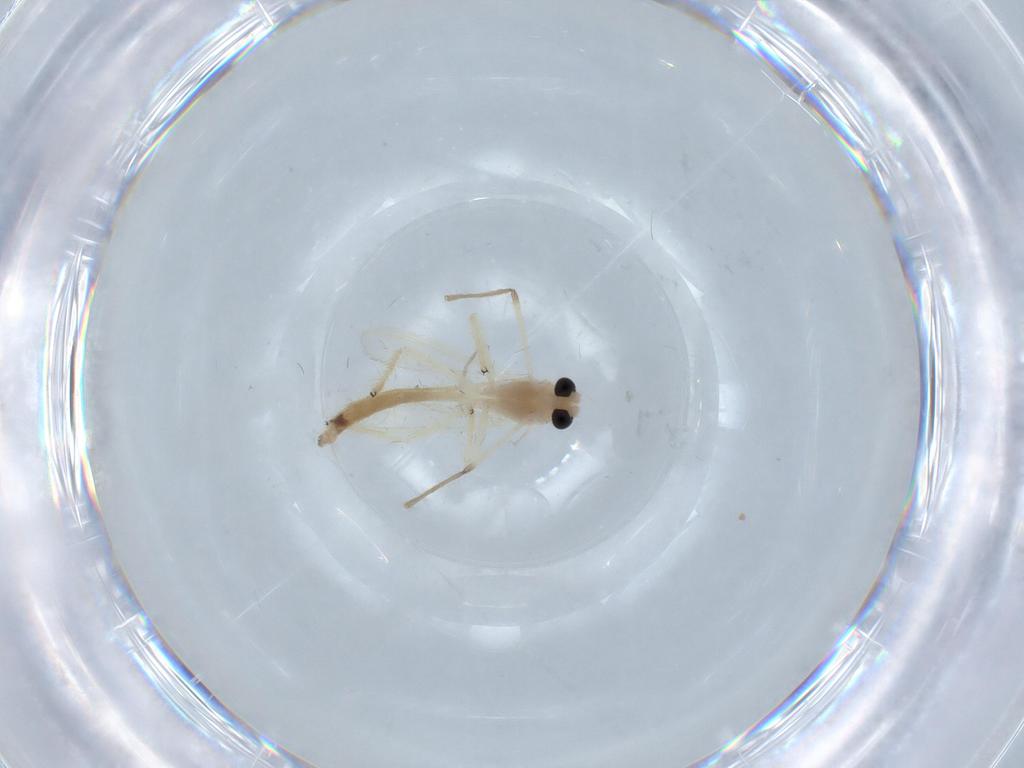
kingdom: Animalia
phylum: Arthropoda
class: Insecta
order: Diptera
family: Chironomidae
